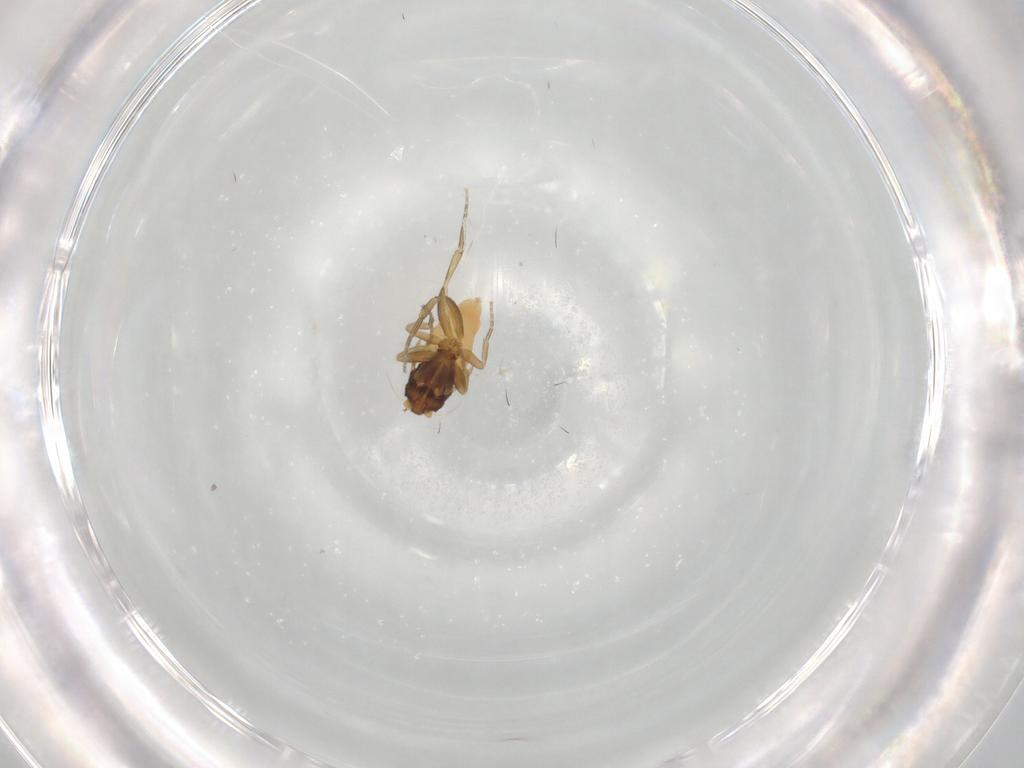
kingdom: Animalia
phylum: Arthropoda
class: Insecta
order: Diptera
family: Phoridae
